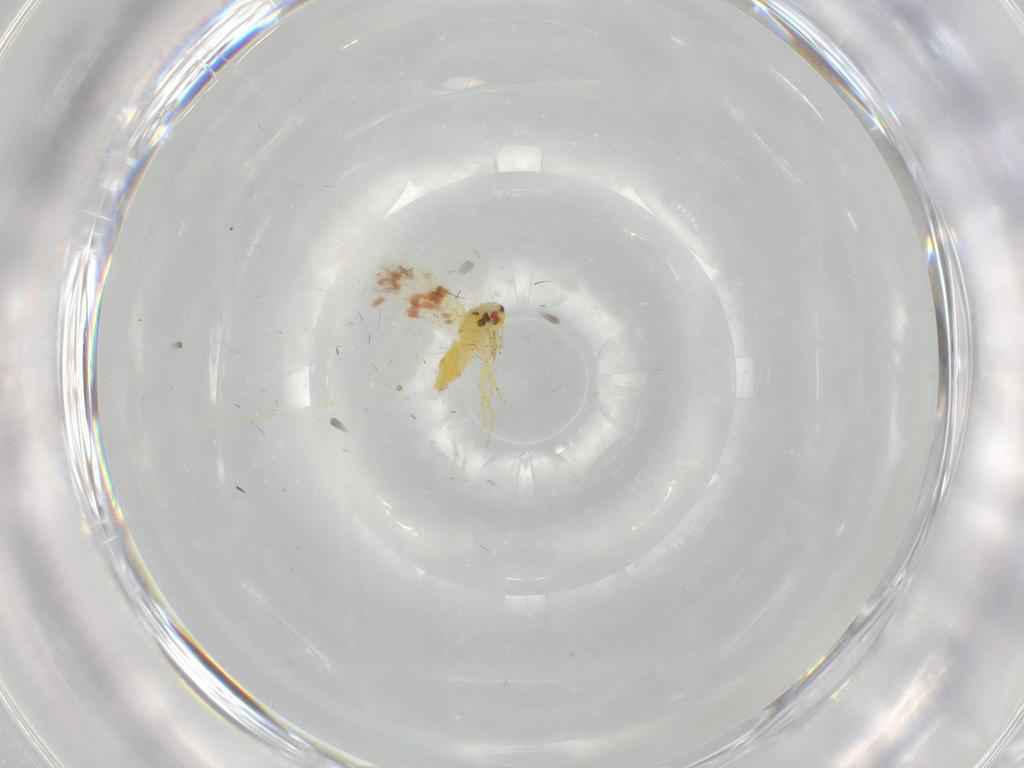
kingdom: Animalia
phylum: Arthropoda
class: Insecta
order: Hemiptera
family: Aleyrodidae
